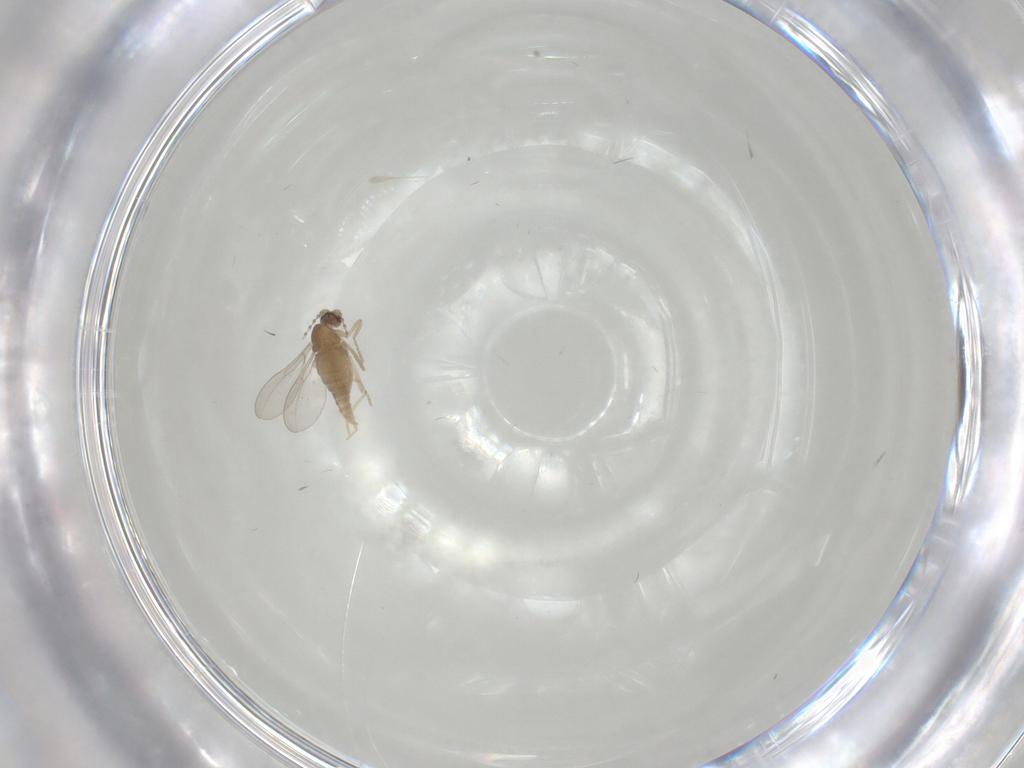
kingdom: Animalia
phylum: Arthropoda
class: Insecta
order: Diptera
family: Cecidomyiidae
